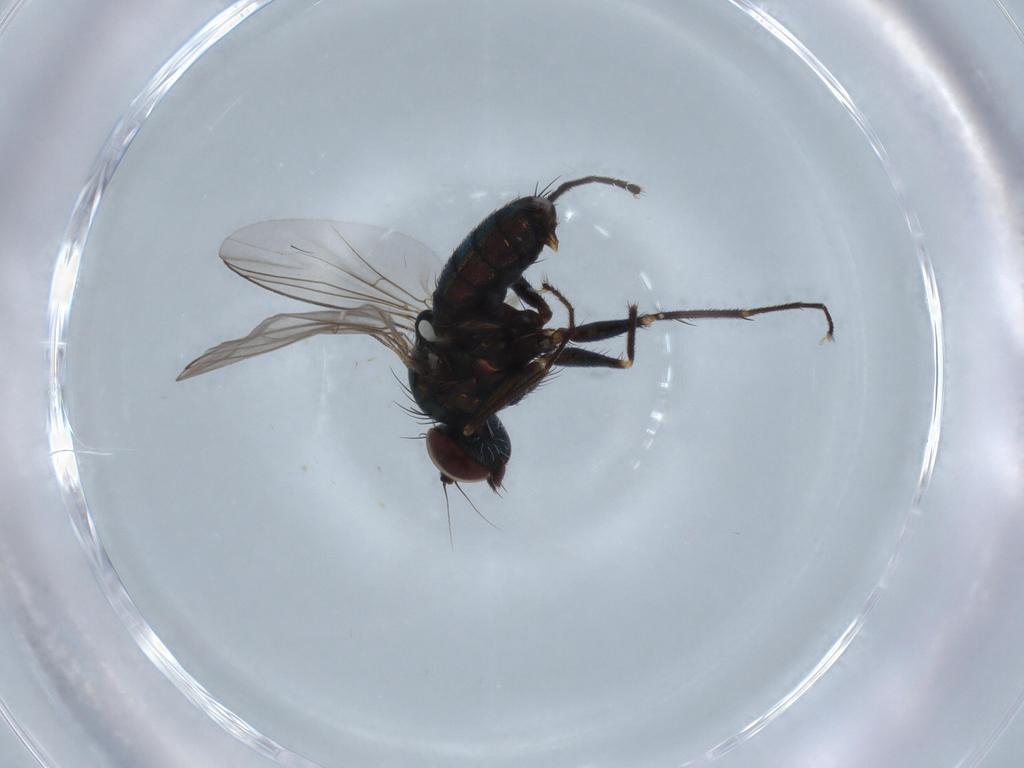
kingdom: Animalia
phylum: Arthropoda
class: Insecta
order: Diptera
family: Dolichopodidae
